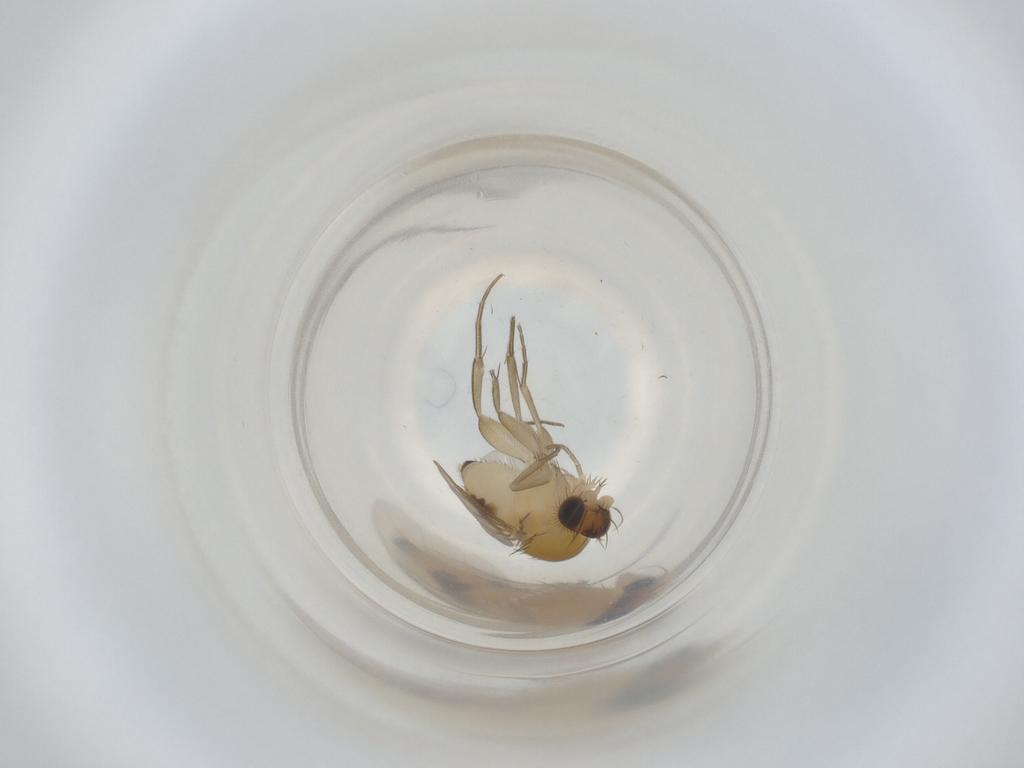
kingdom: Animalia
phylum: Arthropoda
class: Insecta
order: Diptera
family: Phoridae
